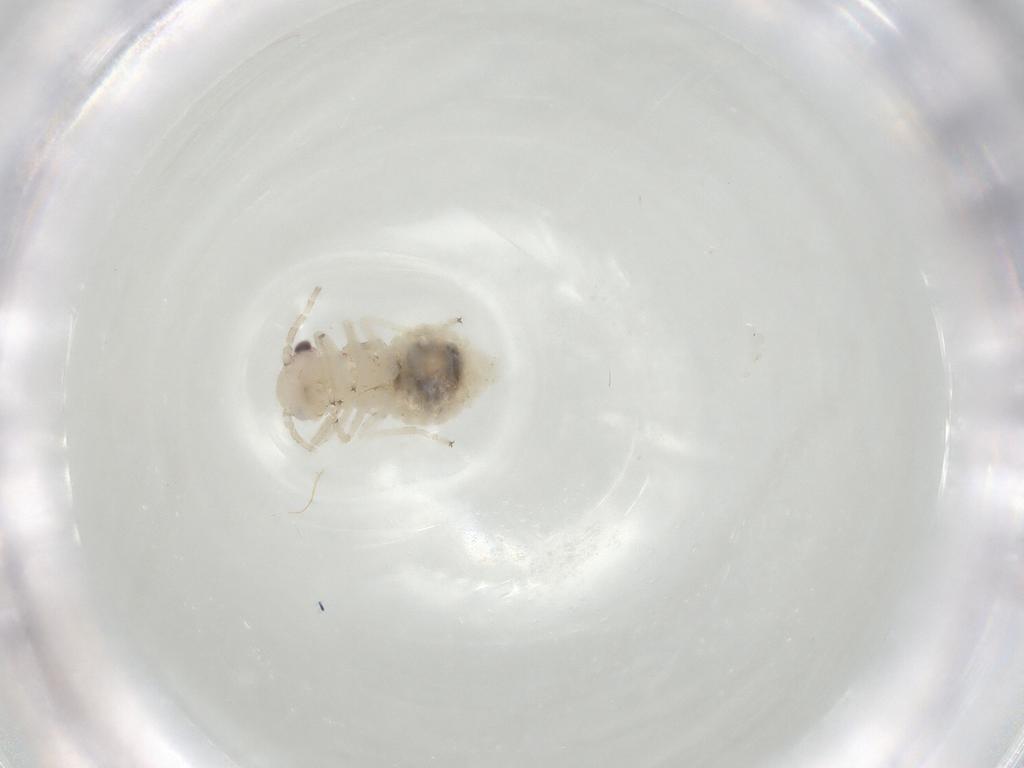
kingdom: Animalia
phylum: Arthropoda
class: Insecta
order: Psocodea
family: Amphipsocidae
